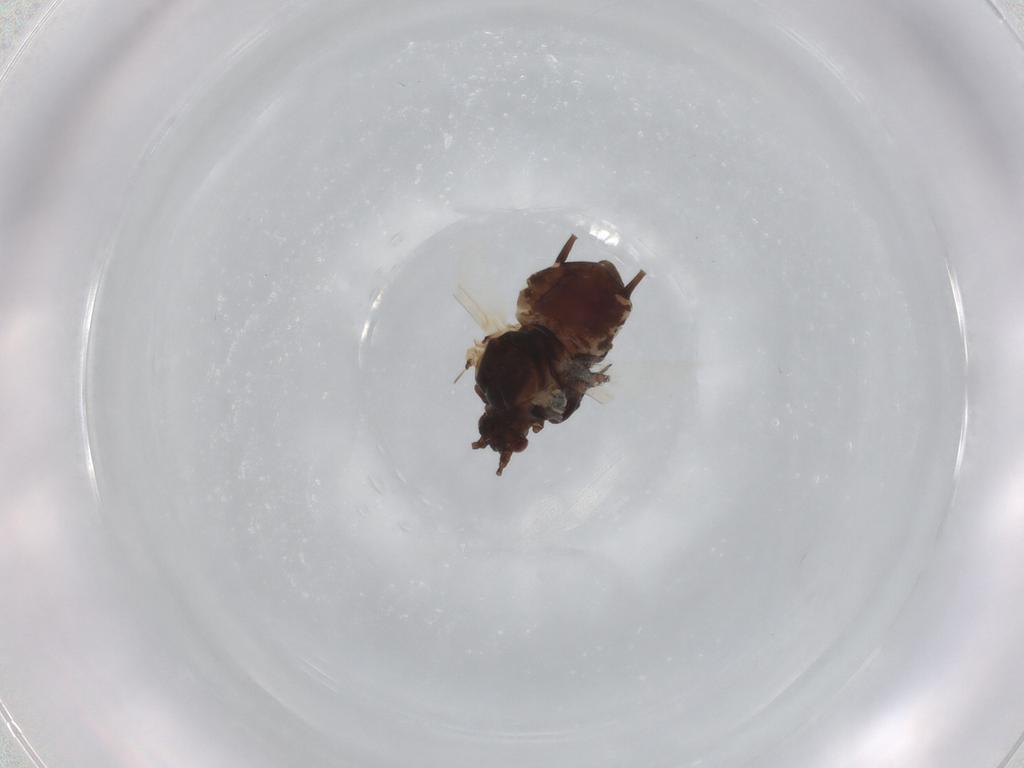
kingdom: Animalia
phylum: Arthropoda
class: Insecta
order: Hemiptera
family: Aphididae
